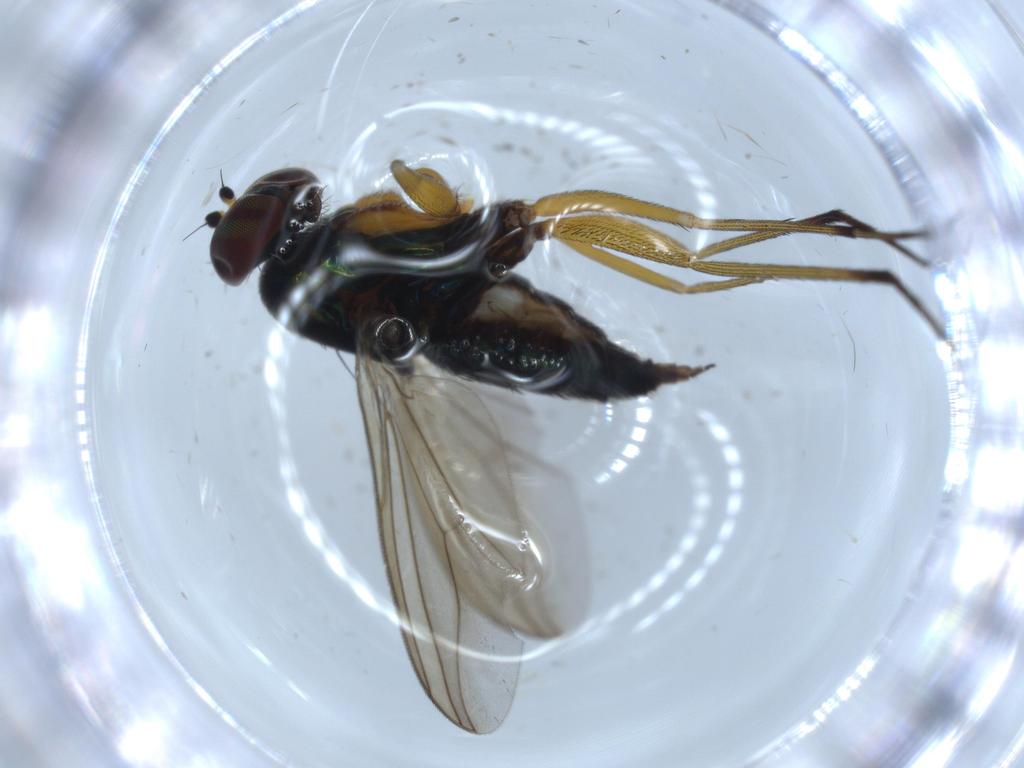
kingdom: Animalia
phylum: Arthropoda
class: Insecta
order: Diptera
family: Dolichopodidae
